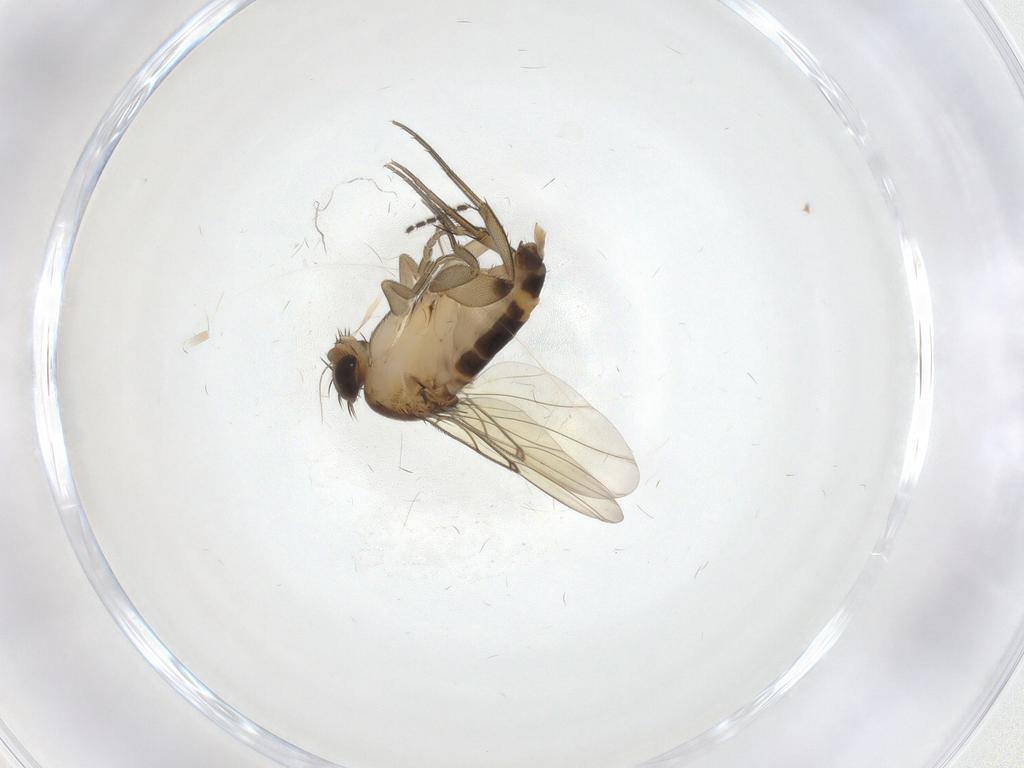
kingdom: Animalia
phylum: Arthropoda
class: Insecta
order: Diptera
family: Chironomidae
